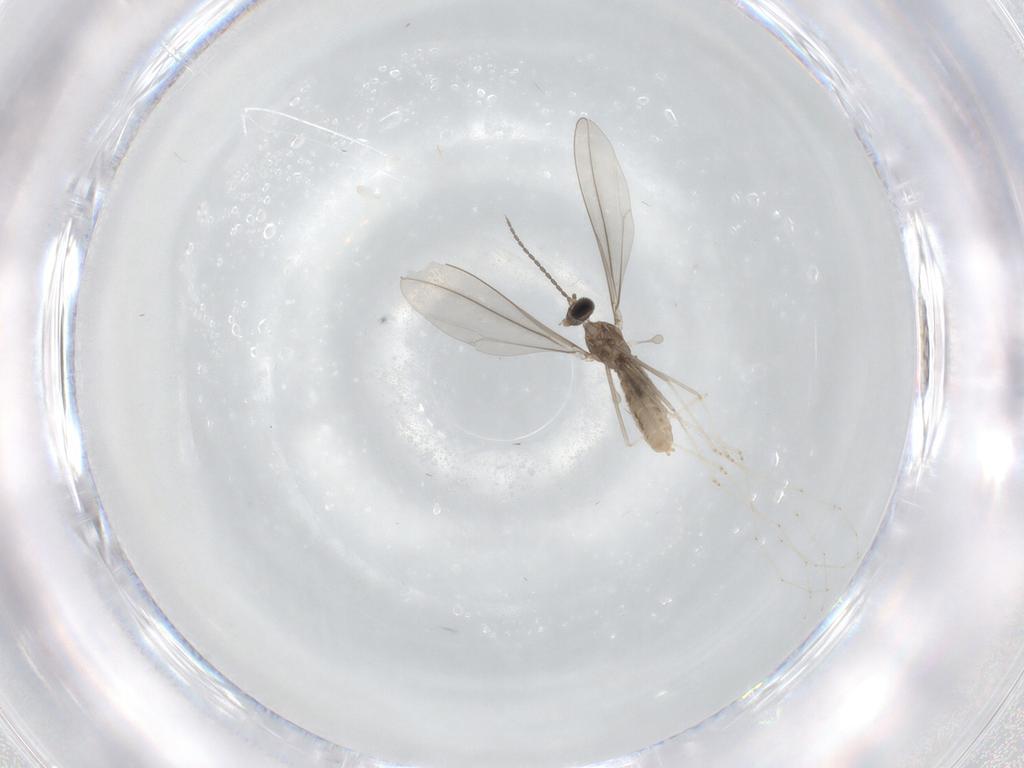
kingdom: Animalia
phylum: Arthropoda
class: Insecta
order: Diptera
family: Cecidomyiidae
